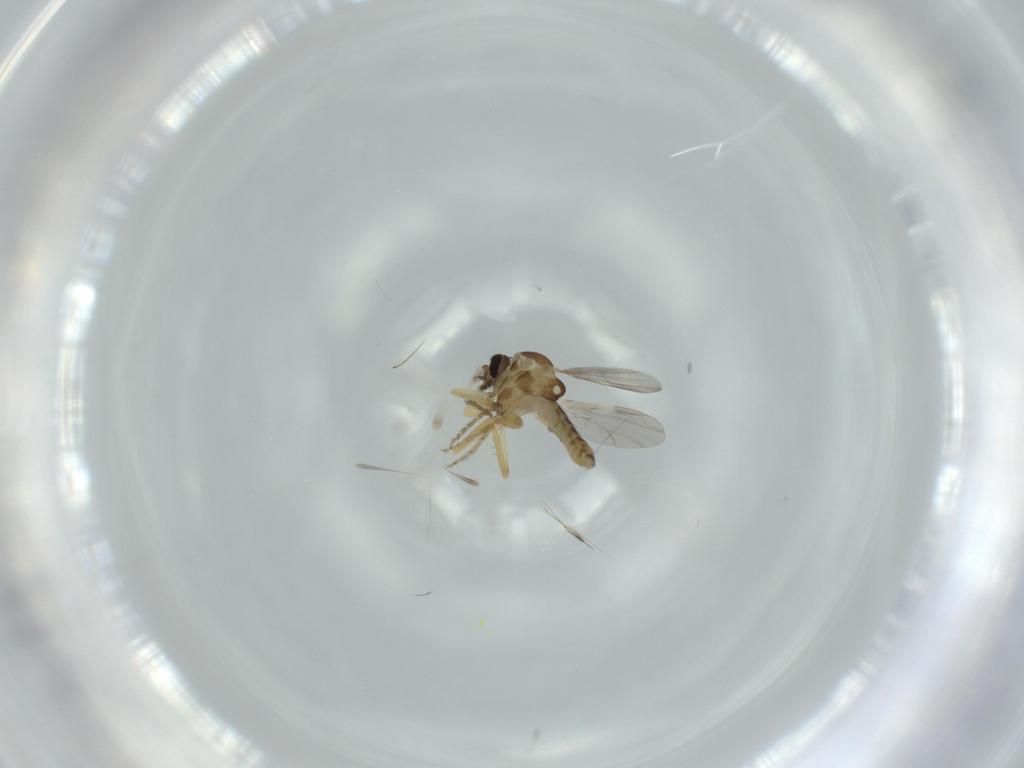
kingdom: Animalia
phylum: Arthropoda
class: Insecta
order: Diptera
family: Ceratopogonidae
